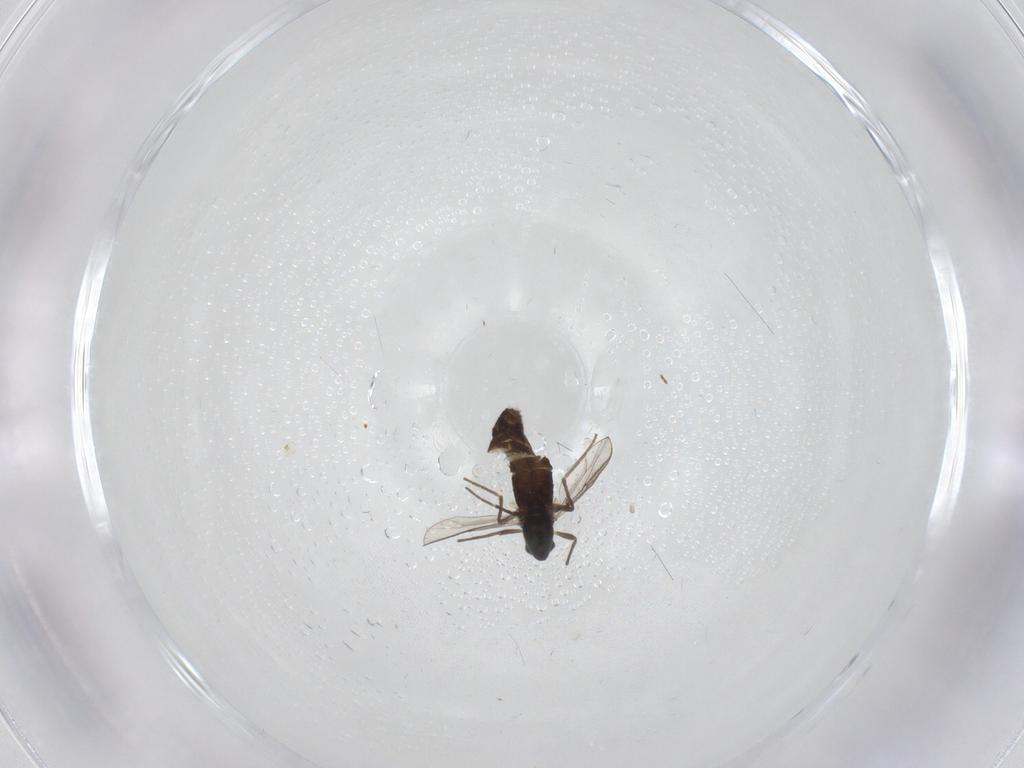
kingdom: Animalia
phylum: Arthropoda
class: Insecta
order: Diptera
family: Chironomidae
